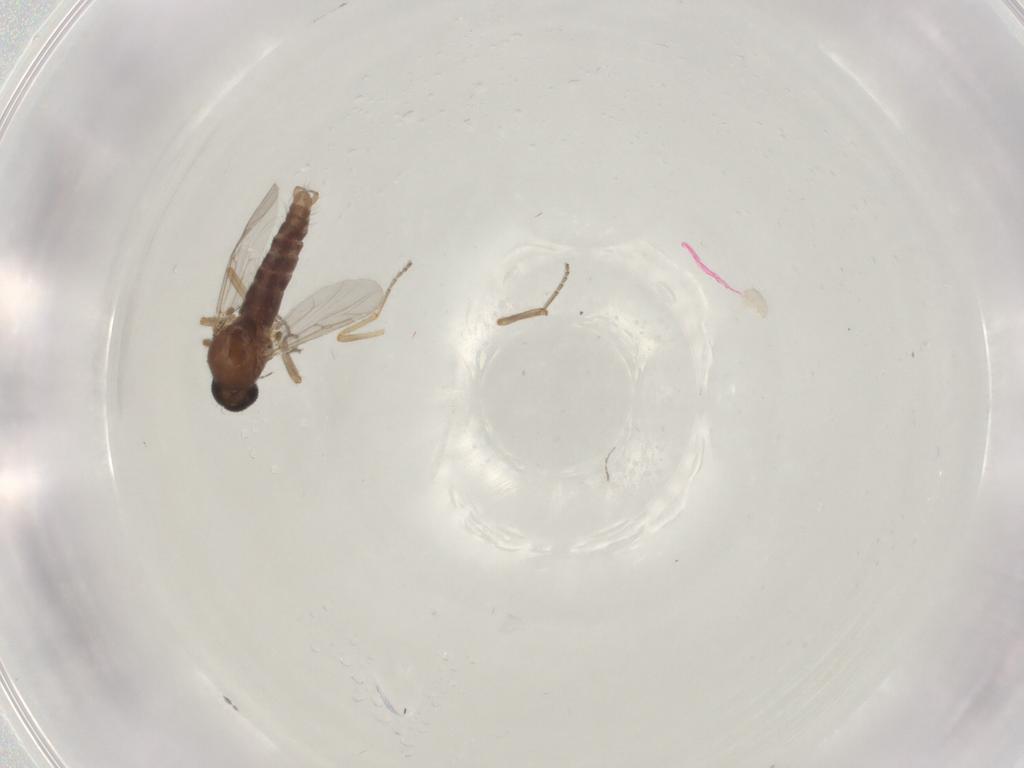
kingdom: Animalia
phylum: Arthropoda
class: Insecta
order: Diptera
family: Ceratopogonidae
